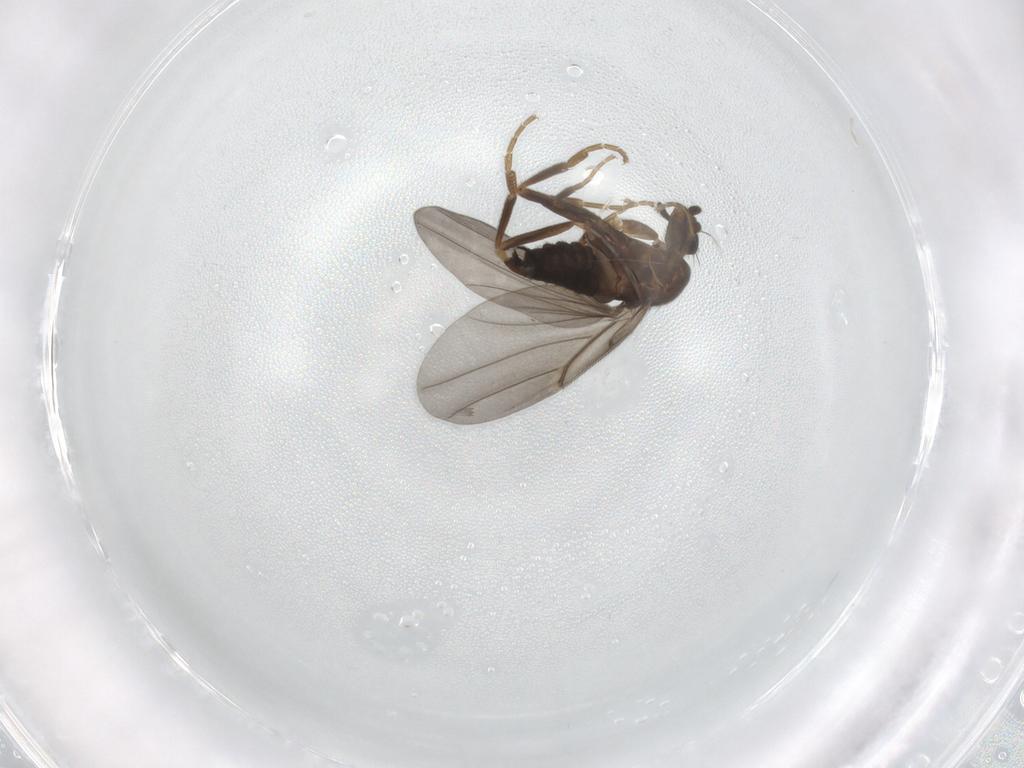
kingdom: Animalia
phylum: Arthropoda
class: Insecta
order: Diptera
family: Chironomidae
